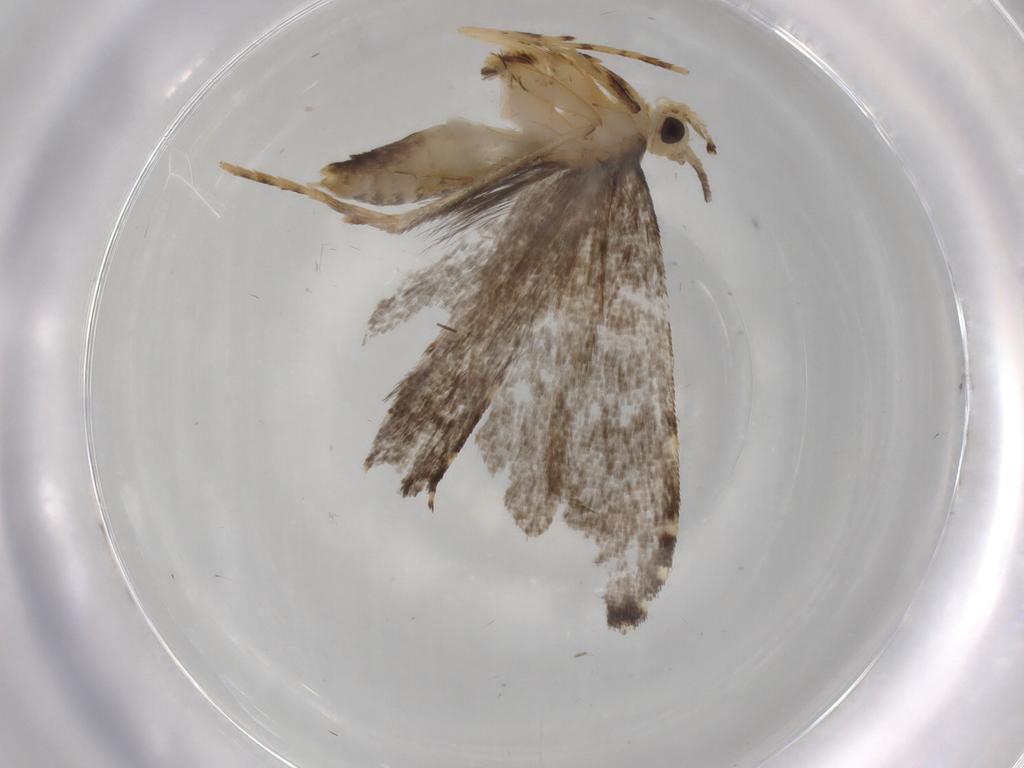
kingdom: Animalia
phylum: Arthropoda
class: Insecta
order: Lepidoptera
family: Tineidae
